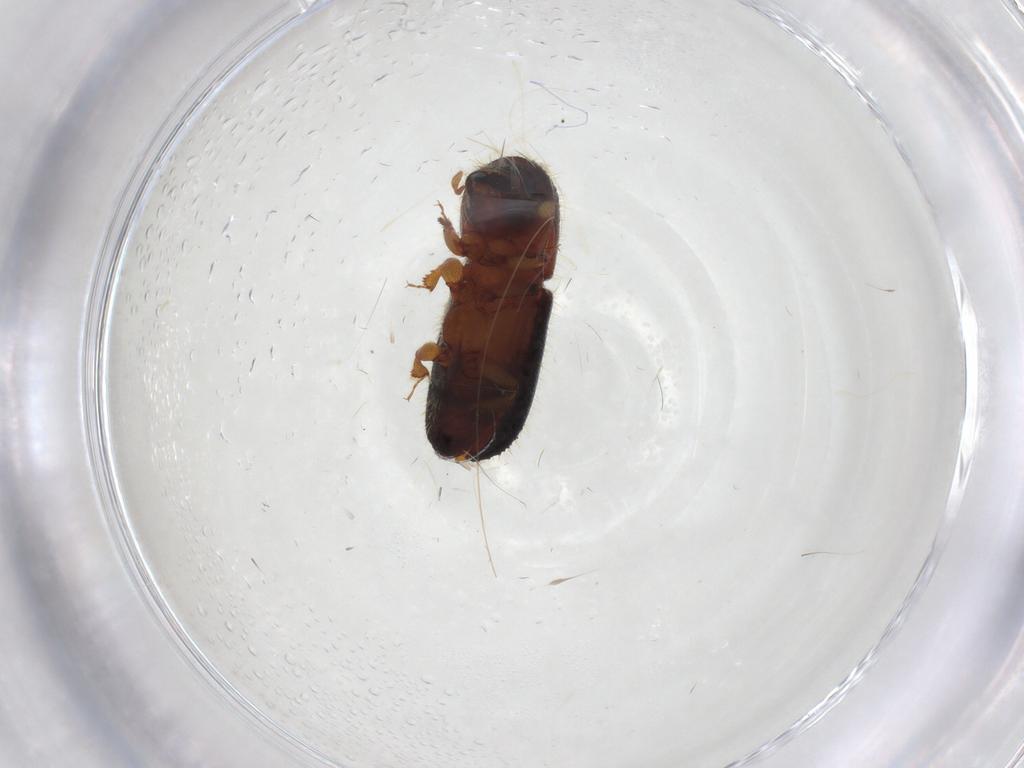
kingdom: Animalia
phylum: Arthropoda
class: Insecta
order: Coleoptera
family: Curculionidae
